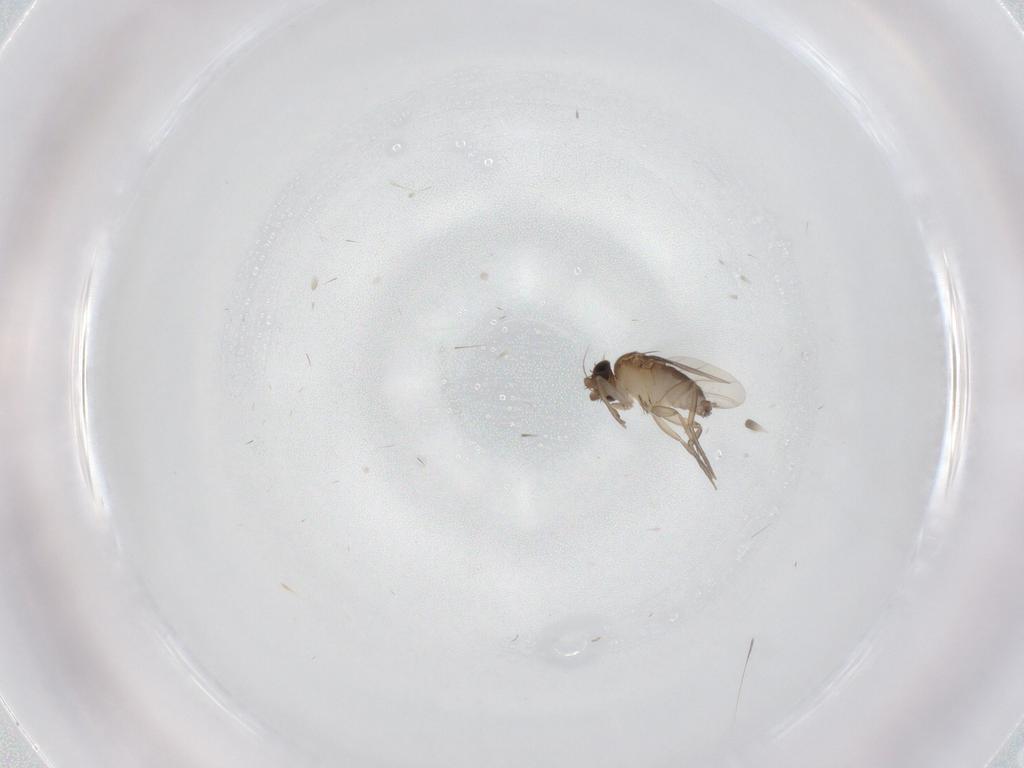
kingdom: Animalia
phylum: Arthropoda
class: Insecta
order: Diptera
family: Phoridae
